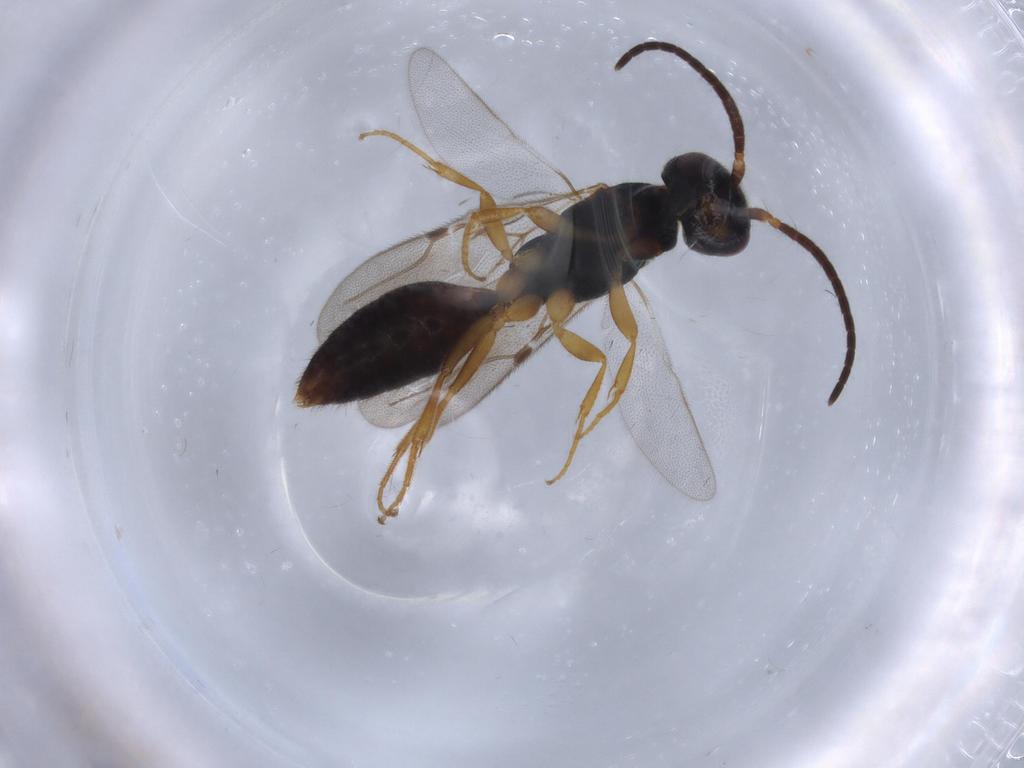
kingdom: Animalia
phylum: Arthropoda
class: Insecta
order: Hymenoptera
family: Bethylidae
